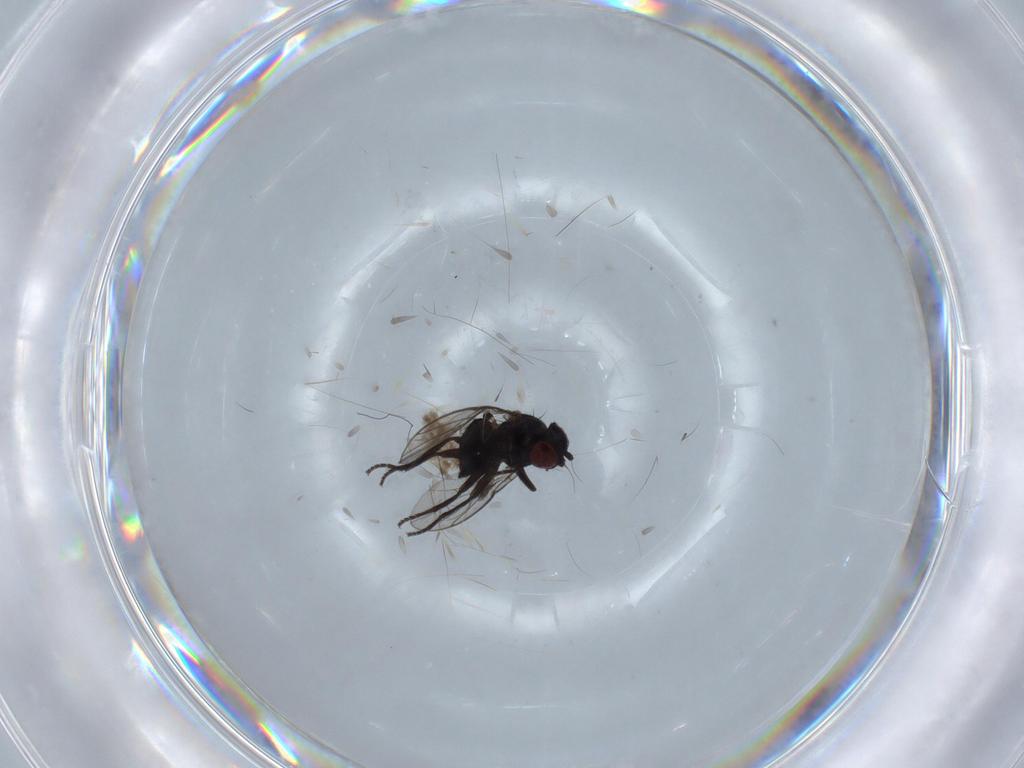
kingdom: Animalia
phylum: Arthropoda
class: Insecta
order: Diptera
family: Agromyzidae
